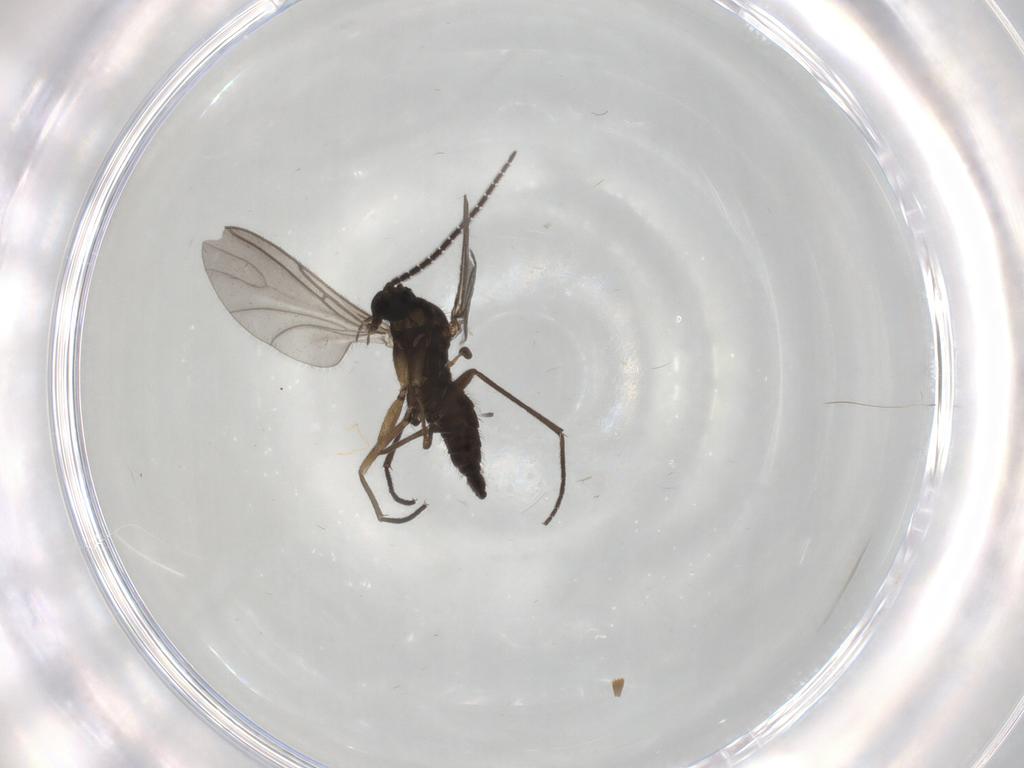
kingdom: Animalia
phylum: Arthropoda
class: Insecta
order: Diptera
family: Sciaridae
